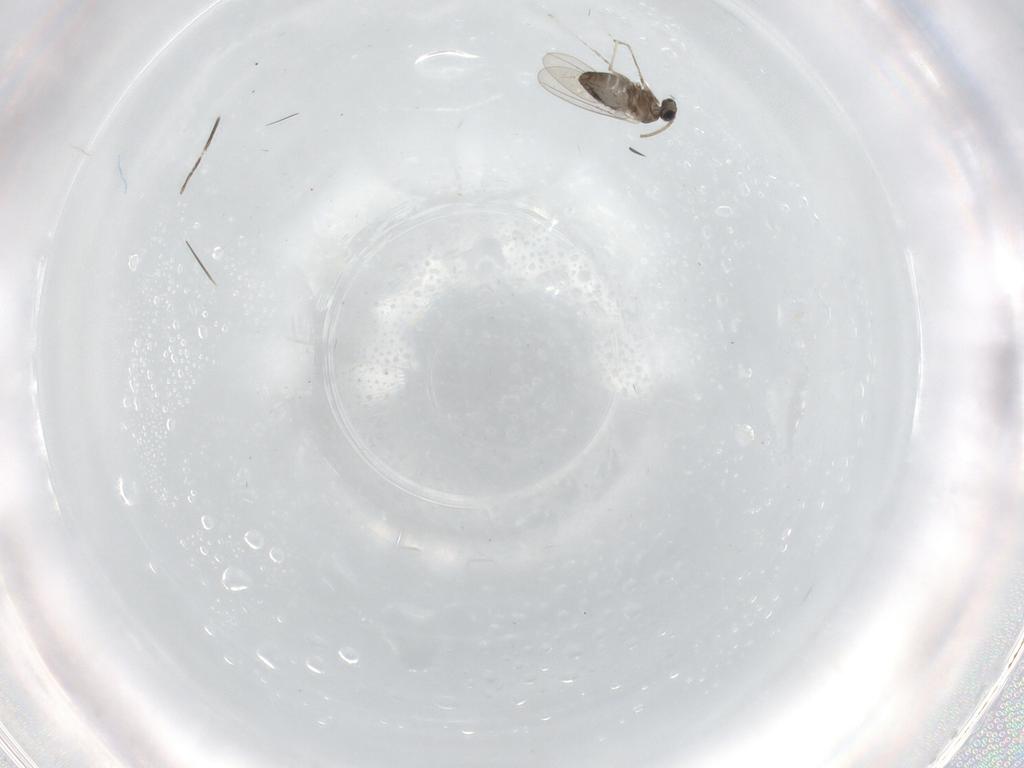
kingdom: Animalia
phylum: Arthropoda
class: Insecta
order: Diptera
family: Cecidomyiidae
